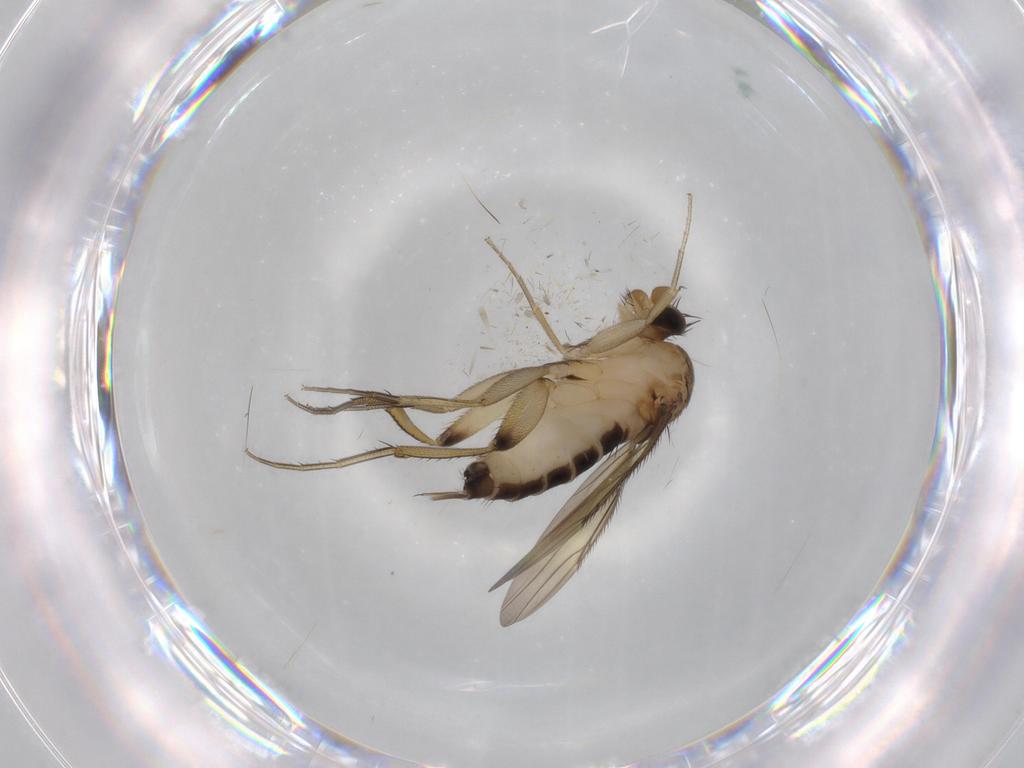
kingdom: Animalia
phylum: Arthropoda
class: Insecta
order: Diptera
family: Phoridae
